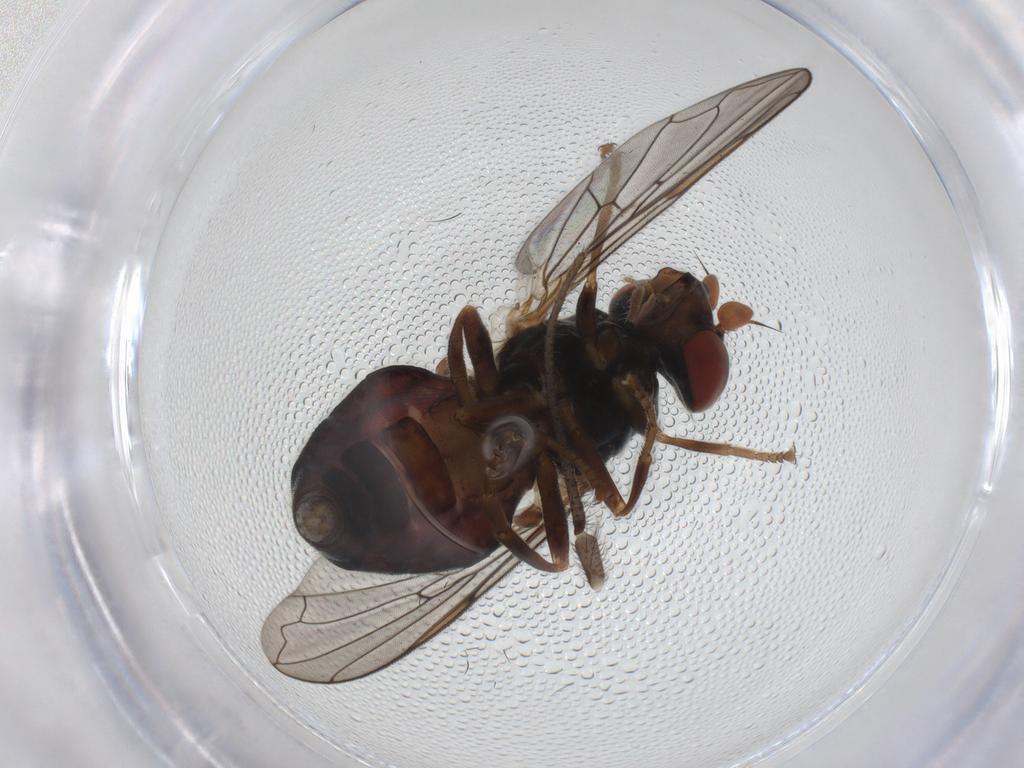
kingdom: Animalia
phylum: Arthropoda
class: Insecta
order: Diptera
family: Syrphidae
